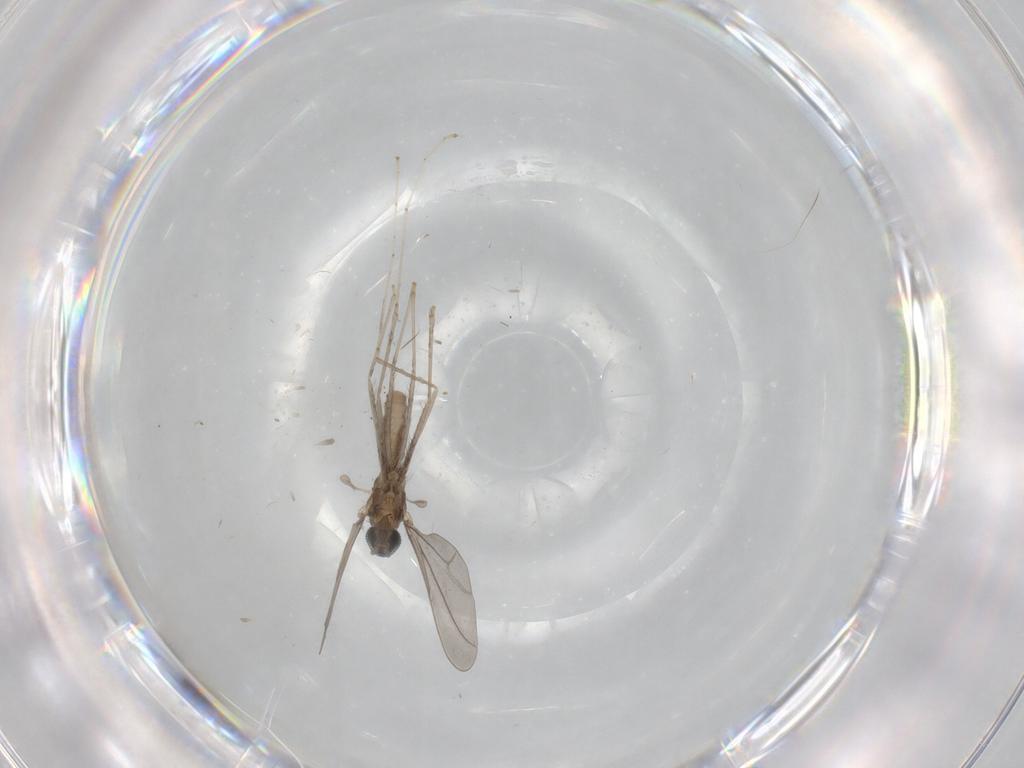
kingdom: Animalia
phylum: Arthropoda
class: Insecta
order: Diptera
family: Cecidomyiidae
